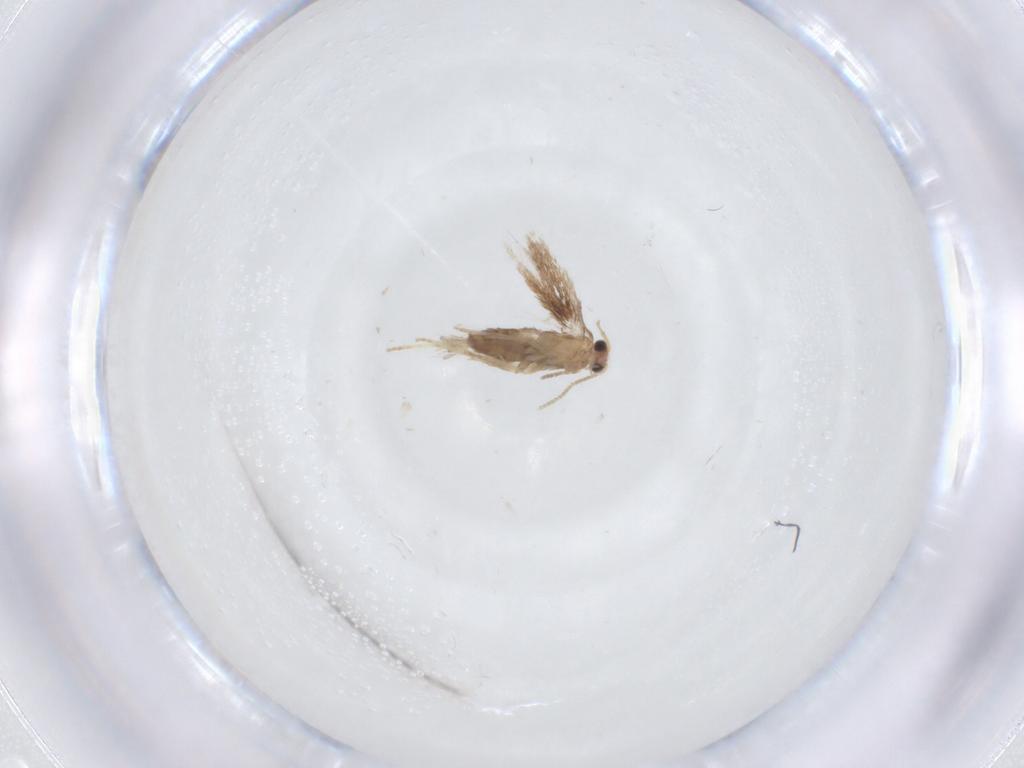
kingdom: Animalia
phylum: Arthropoda
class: Insecta
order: Lepidoptera
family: Nepticulidae
